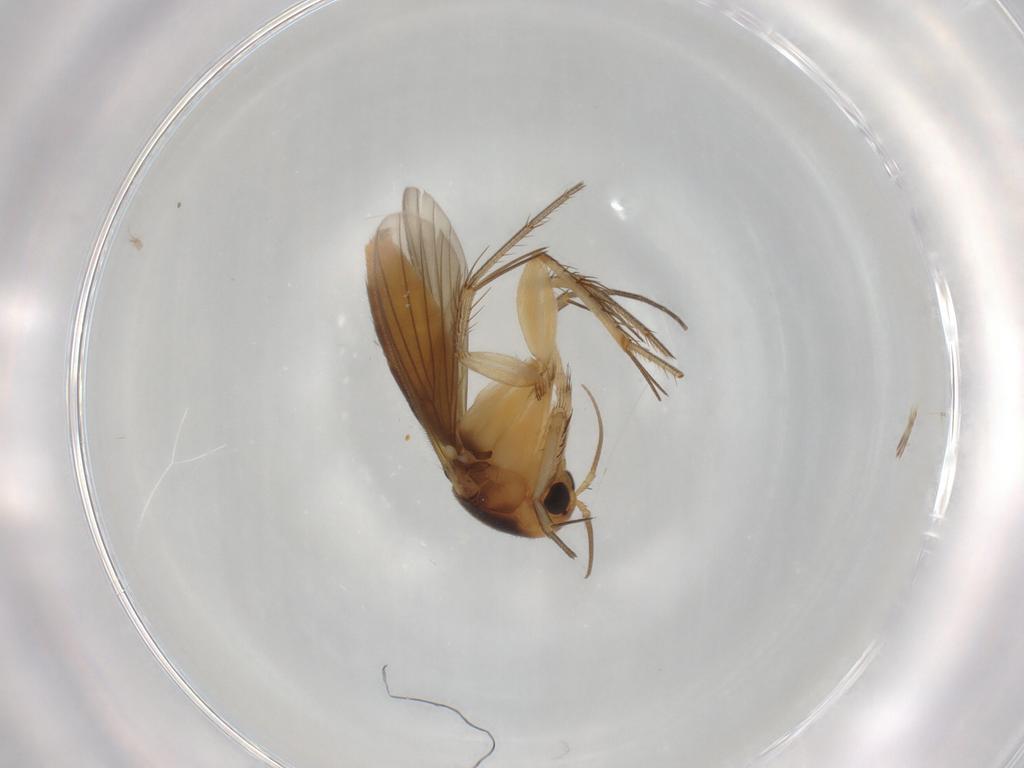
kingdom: Animalia
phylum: Arthropoda
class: Insecta
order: Diptera
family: Mycetophilidae
